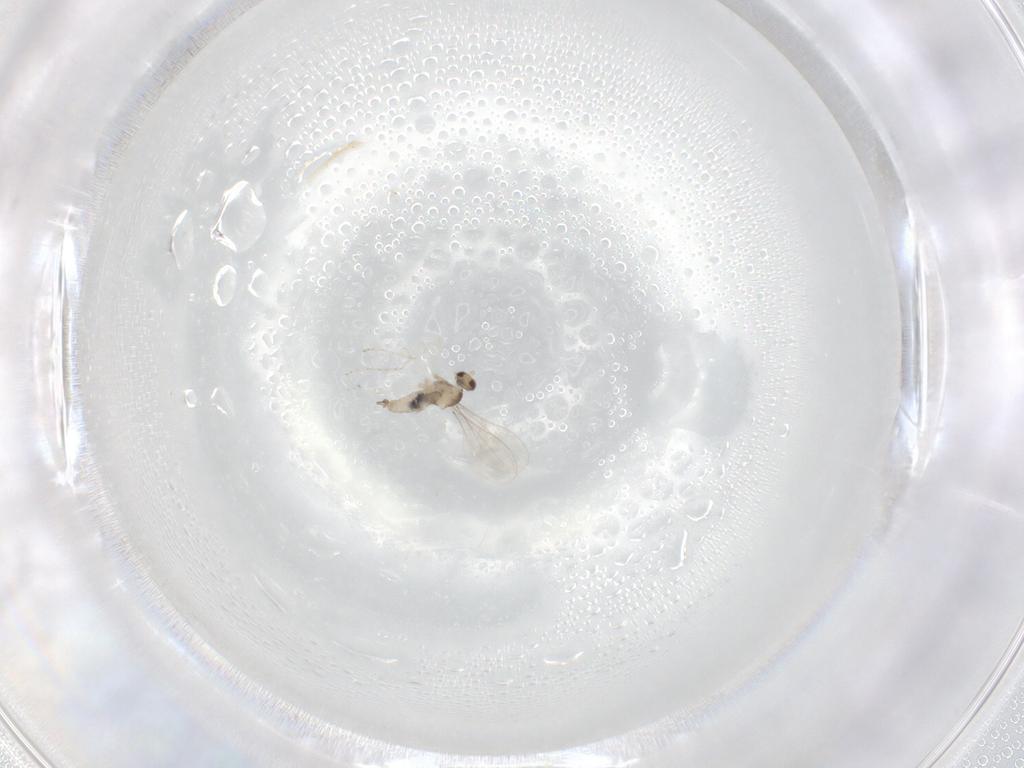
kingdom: Animalia
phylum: Arthropoda
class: Insecta
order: Diptera
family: Cecidomyiidae
